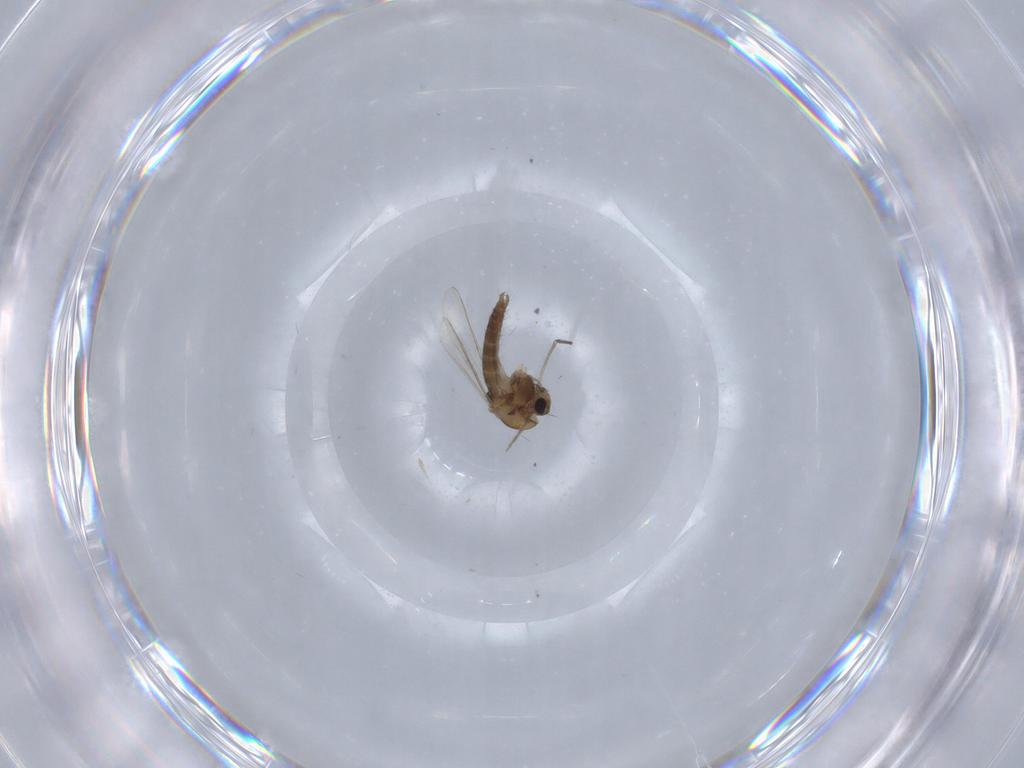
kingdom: Animalia
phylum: Arthropoda
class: Insecta
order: Diptera
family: Chironomidae
